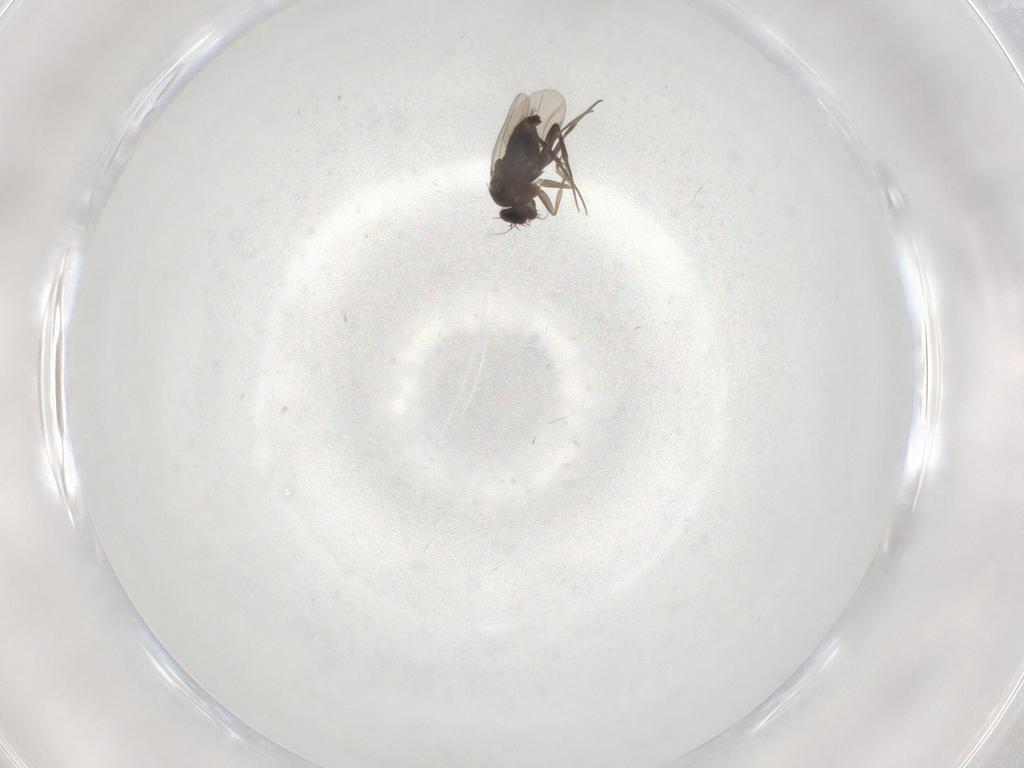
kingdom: Animalia
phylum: Arthropoda
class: Insecta
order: Diptera
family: Phoridae
